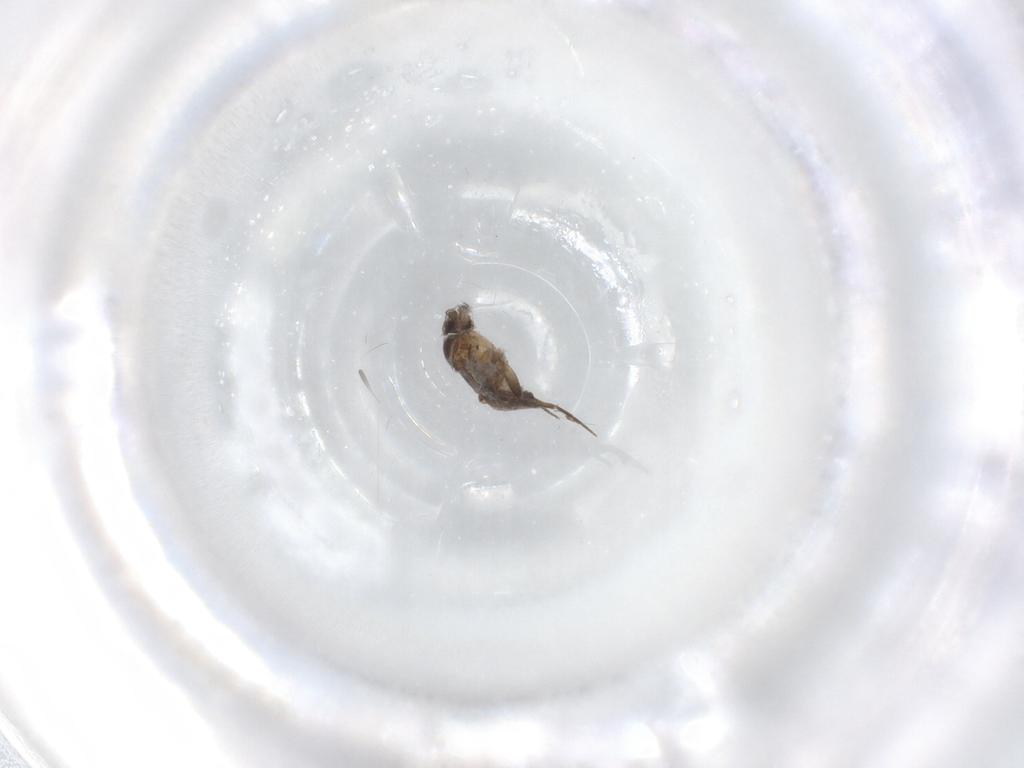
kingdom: Animalia
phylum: Arthropoda
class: Insecta
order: Diptera
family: Phoridae
